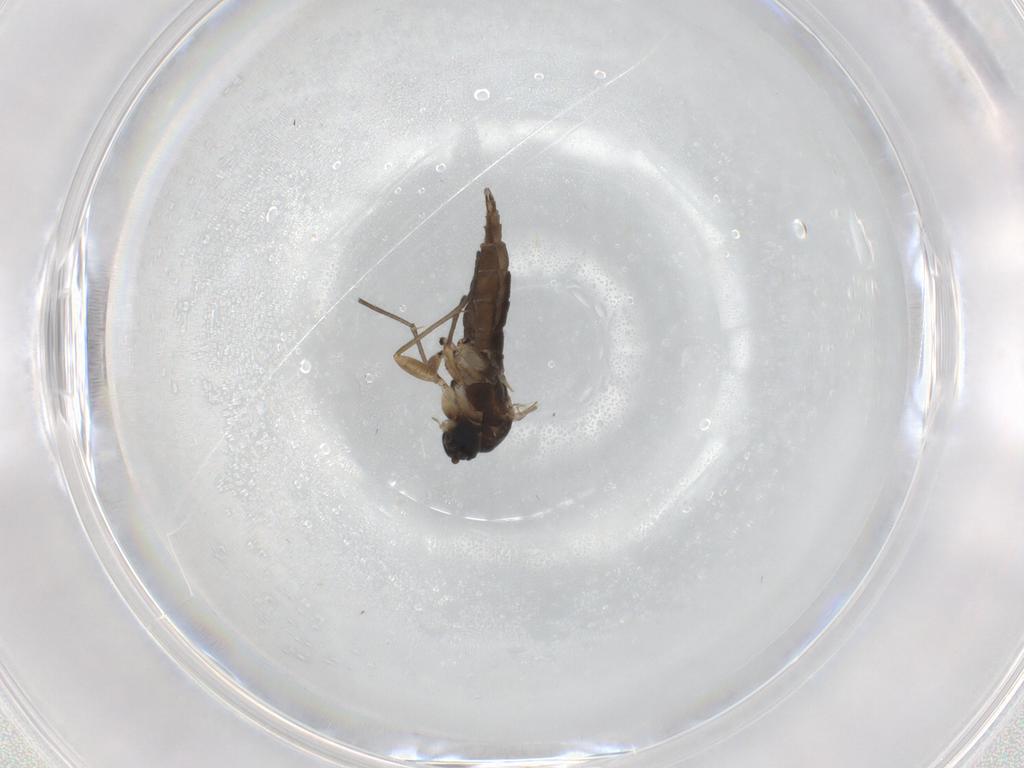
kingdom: Animalia
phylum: Arthropoda
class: Insecta
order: Diptera
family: Sciaridae
